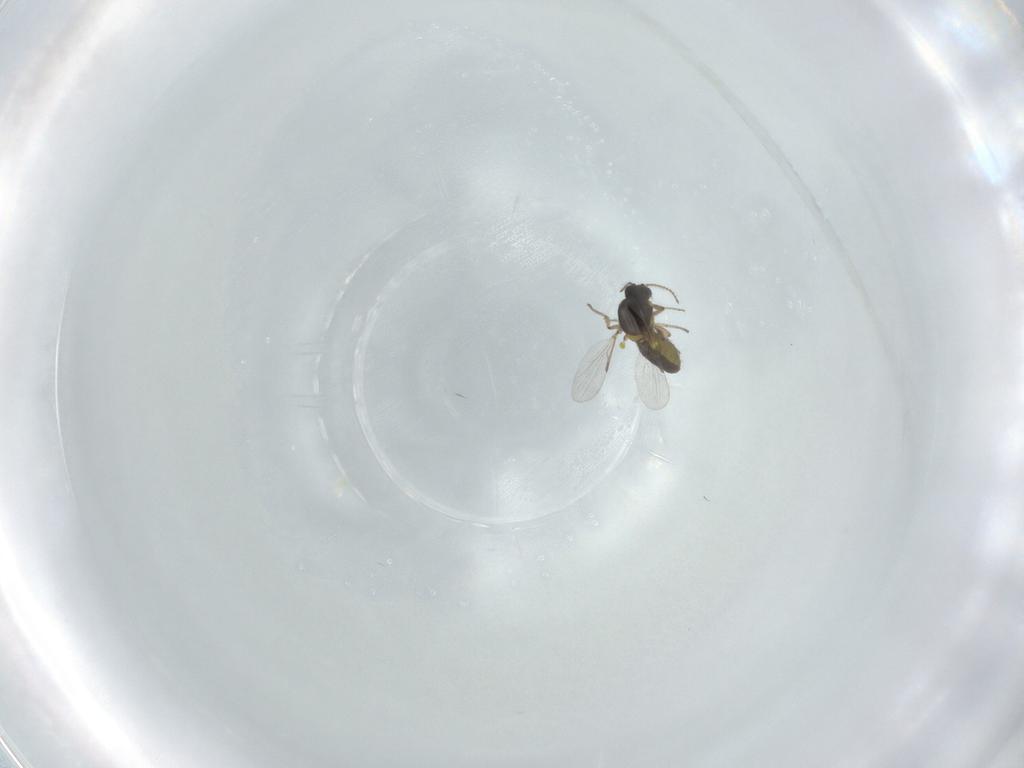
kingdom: Animalia
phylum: Arthropoda
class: Insecta
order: Diptera
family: Ceratopogonidae
